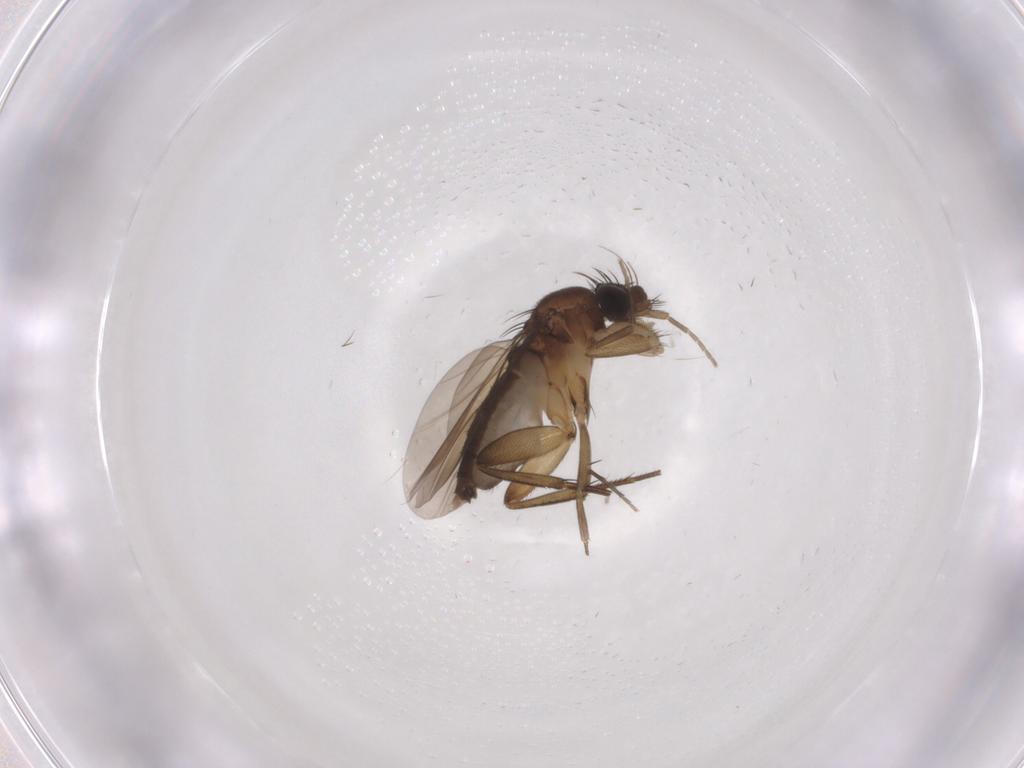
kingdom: Animalia
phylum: Arthropoda
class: Insecta
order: Diptera
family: Phoridae
